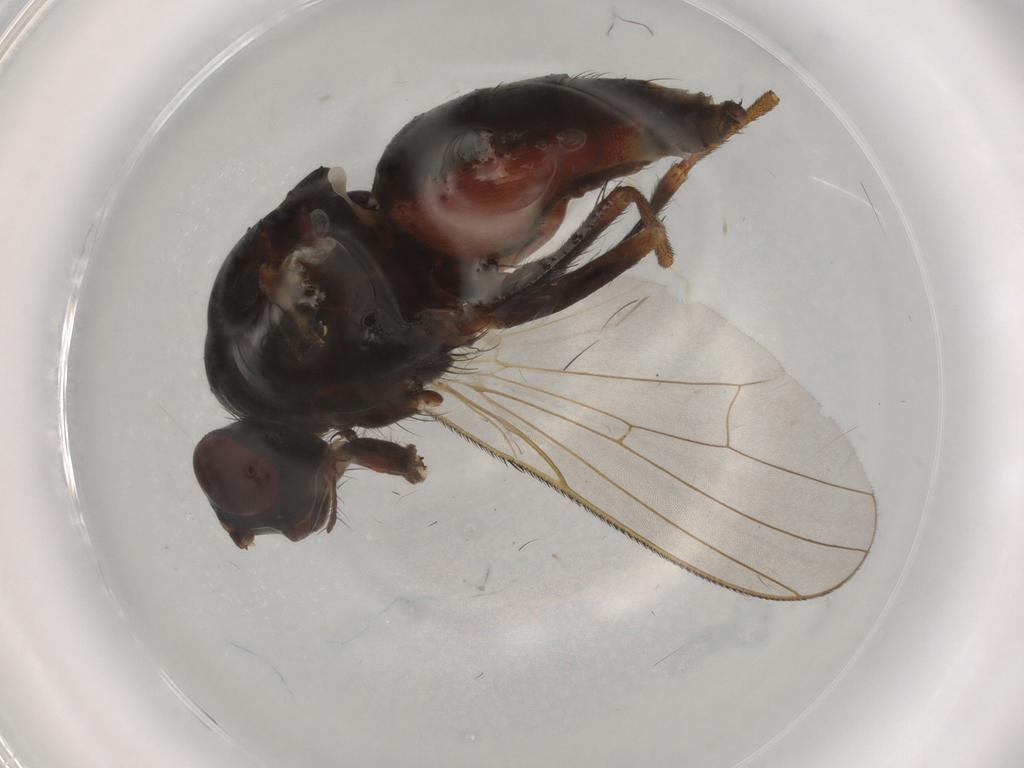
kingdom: Animalia
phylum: Arthropoda
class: Insecta
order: Diptera
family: Anthomyiidae
